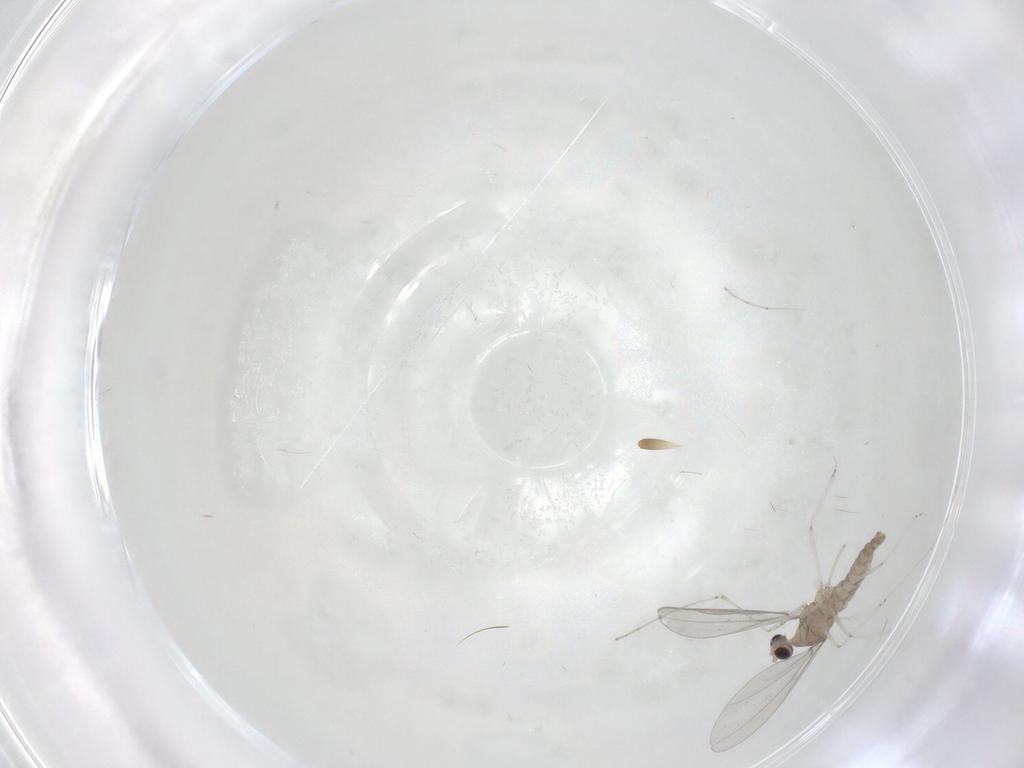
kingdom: Animalia
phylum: Arthropoda
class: Insecta
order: Diptera
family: Cecidomyiidae
